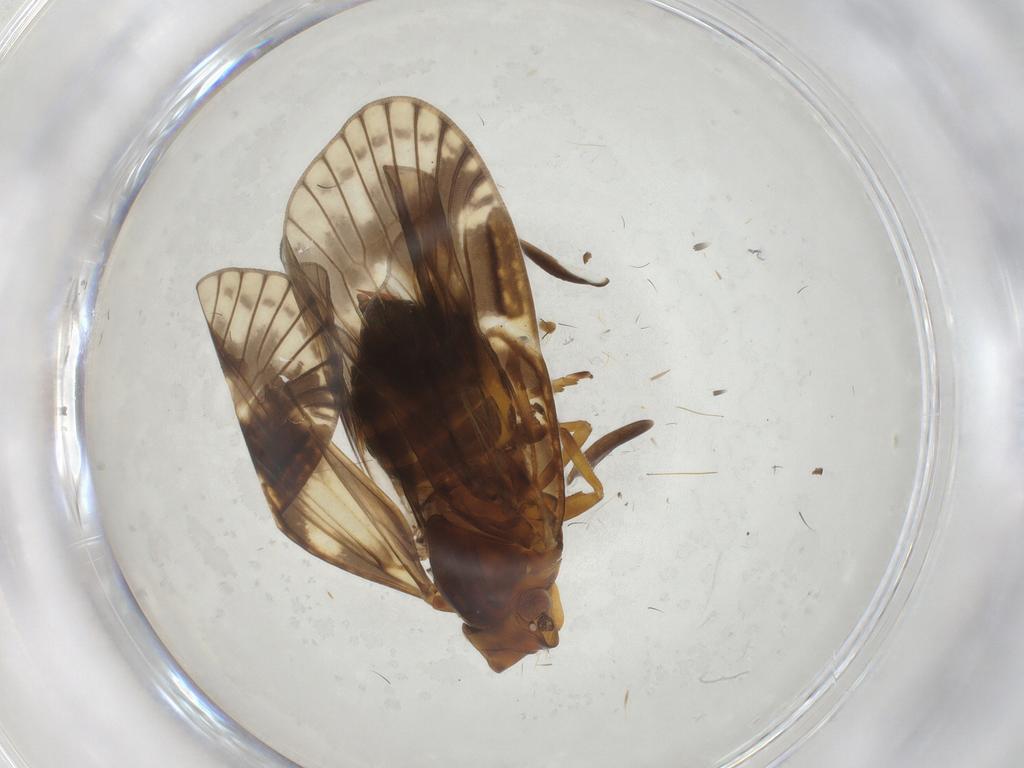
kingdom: Animalia
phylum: Arthropoda
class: Insecta
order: Hemiptera
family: Cixiidae
